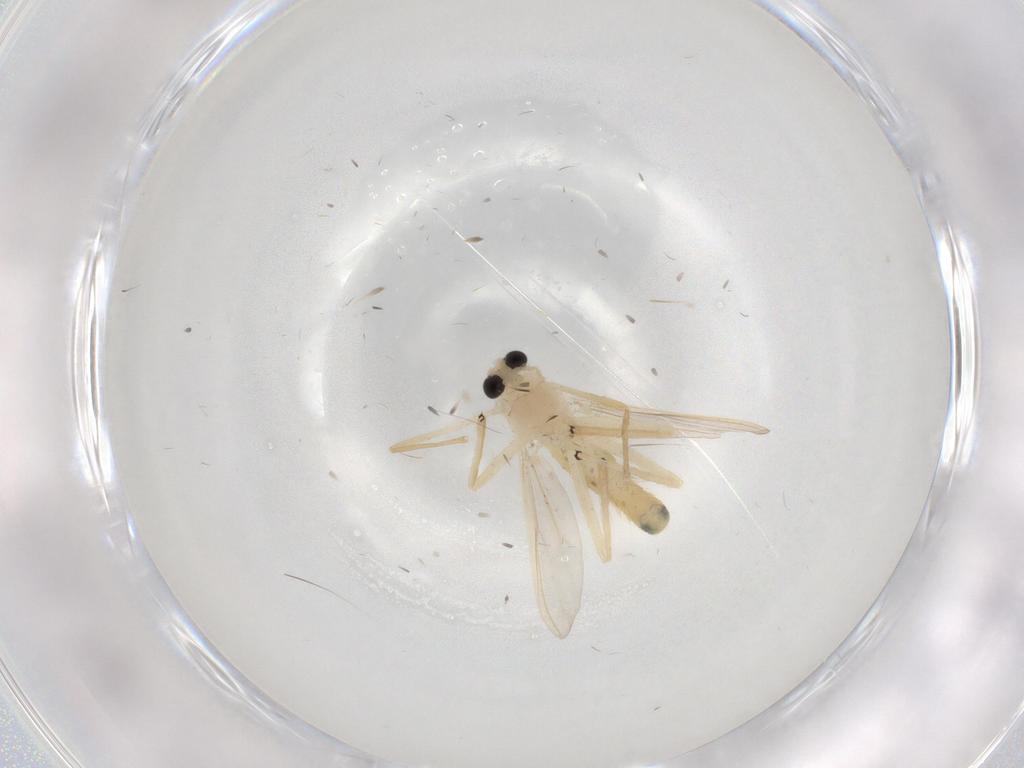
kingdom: Animalia
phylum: Arthropoda
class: Insecta
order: Diptera
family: Chironomidae
